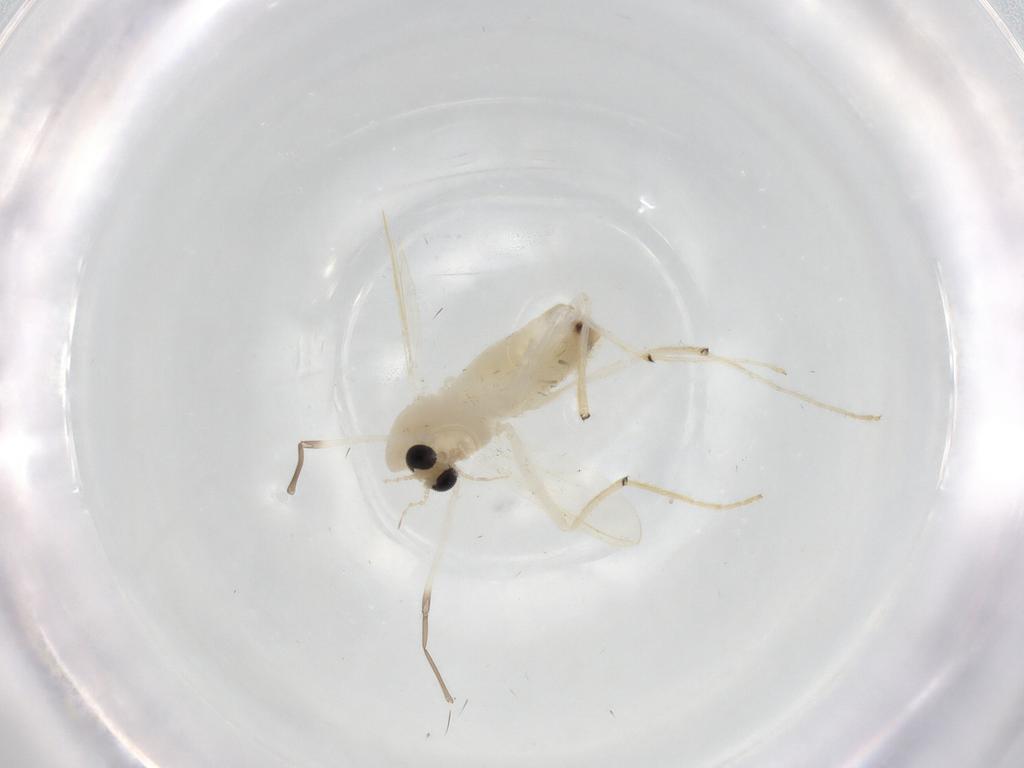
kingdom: Animalia
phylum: Arthropoda
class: Insecta
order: Diptera
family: Chironomidae
